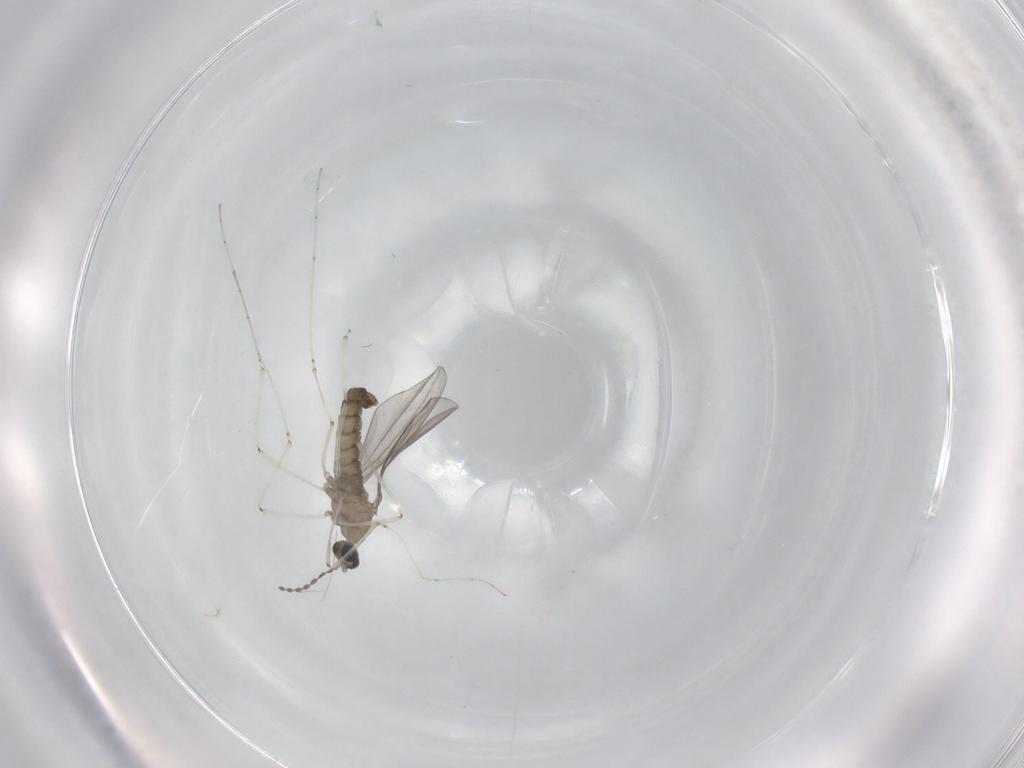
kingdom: Animalia
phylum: Arthropoda
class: Insecta
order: Diptera
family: Cecidomyiidae
